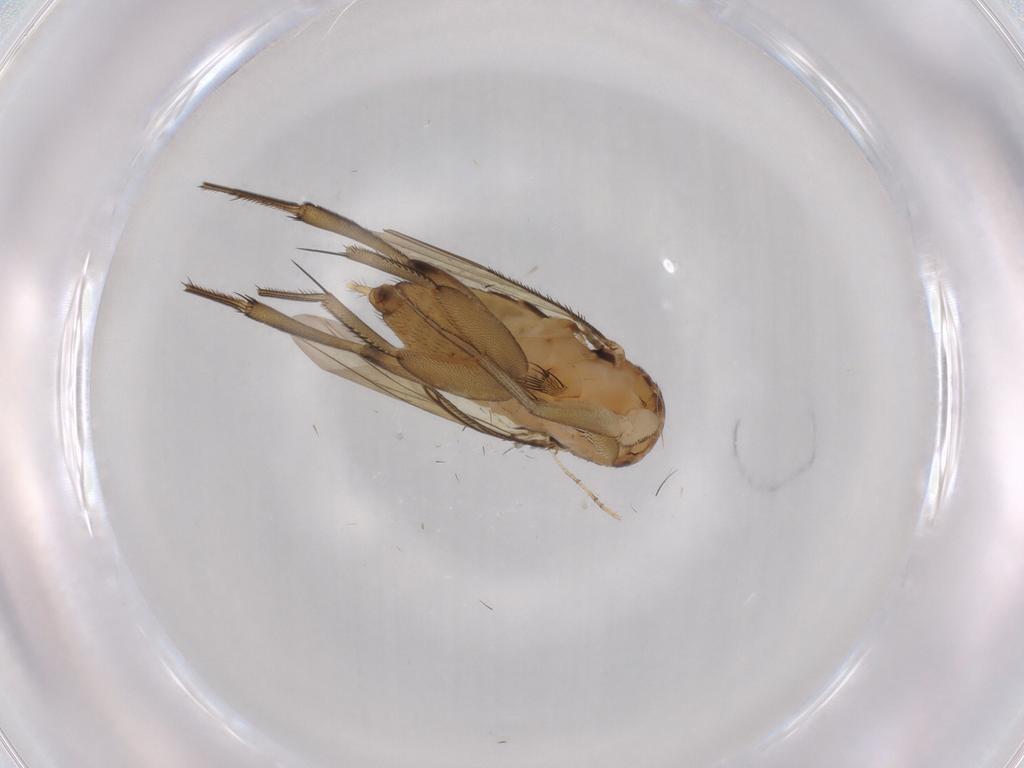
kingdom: Animalia
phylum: Arthropoda
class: Insecta
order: Diptera
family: Phoridae
